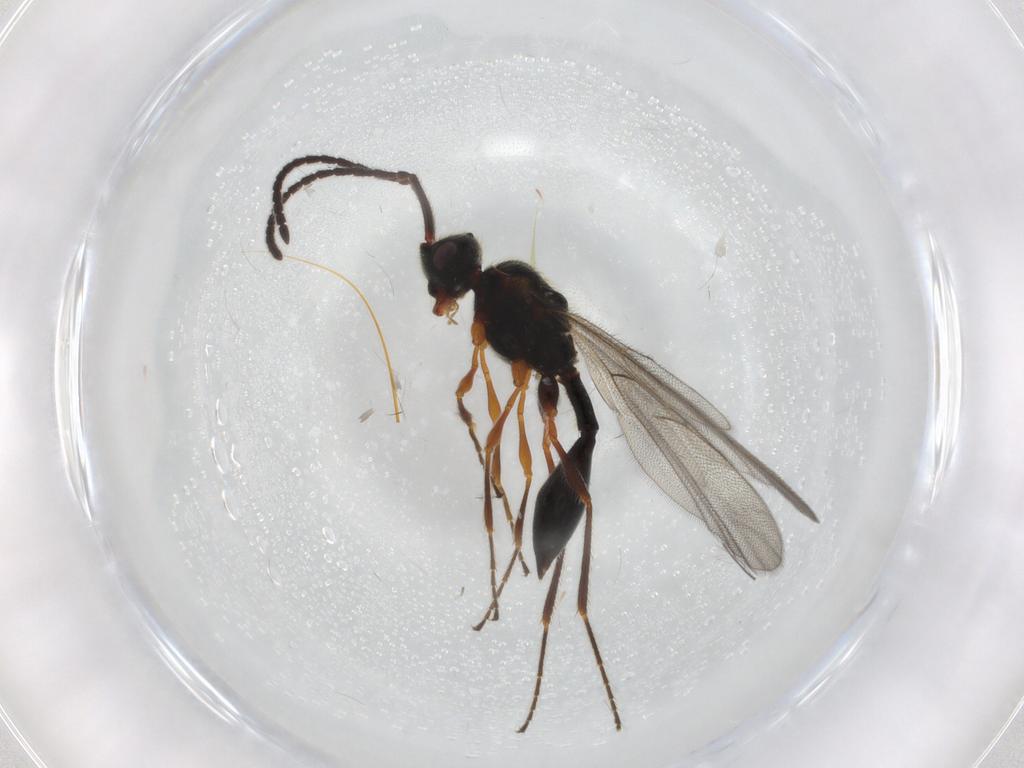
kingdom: Animalia
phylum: Arthropoda
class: Insecta
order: Hymenoptera
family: Diapriidae
